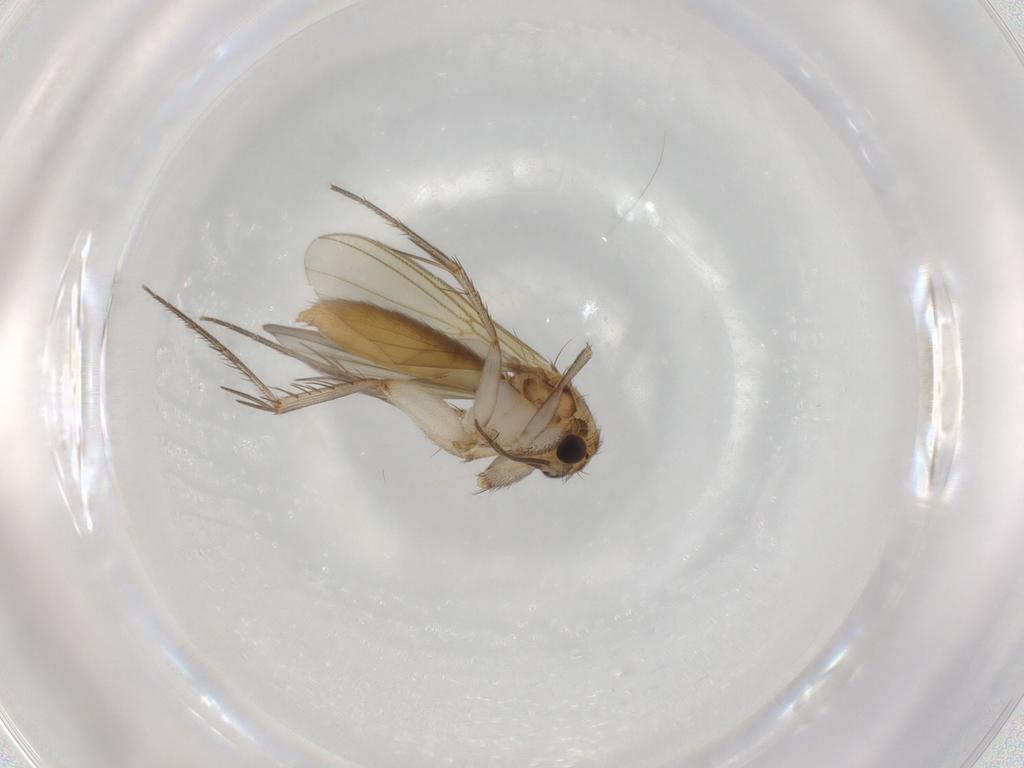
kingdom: Animalia
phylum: Arthropoda
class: Insecta
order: Diptera
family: Mycetophilidae
